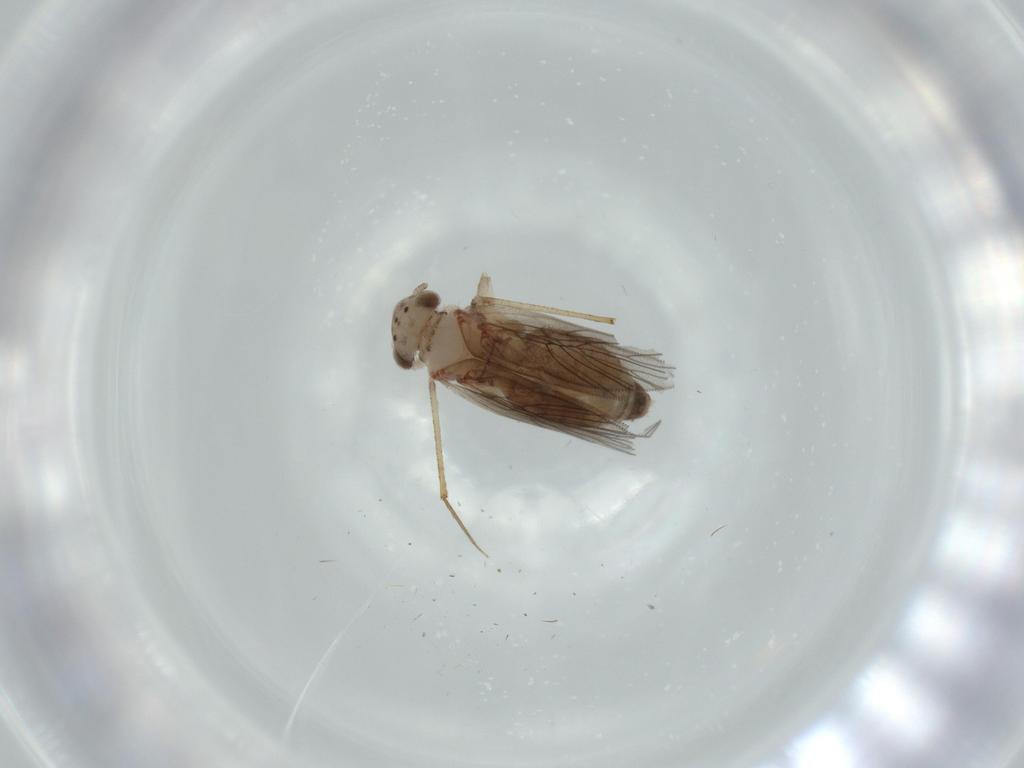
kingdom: Animalia
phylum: Arthropoda
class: Insecta
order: Psocodea
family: Lepidopsocidae
